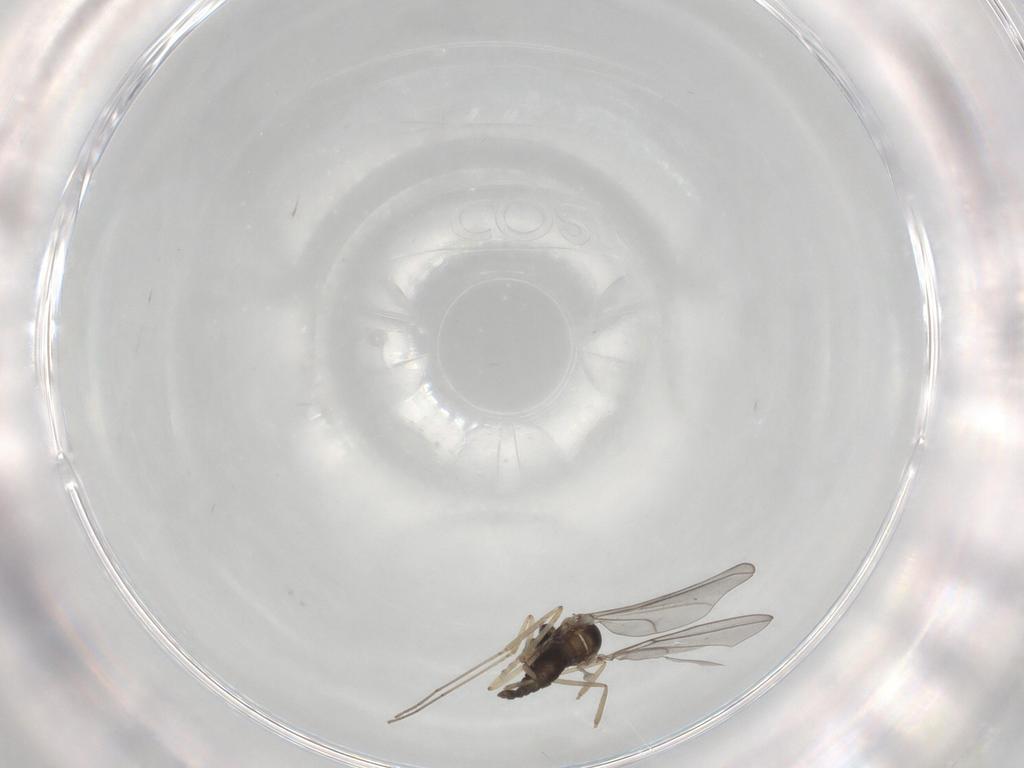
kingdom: Animalia
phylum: Arthropoda
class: Insecta
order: Diptera
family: Cecidomyiidae
